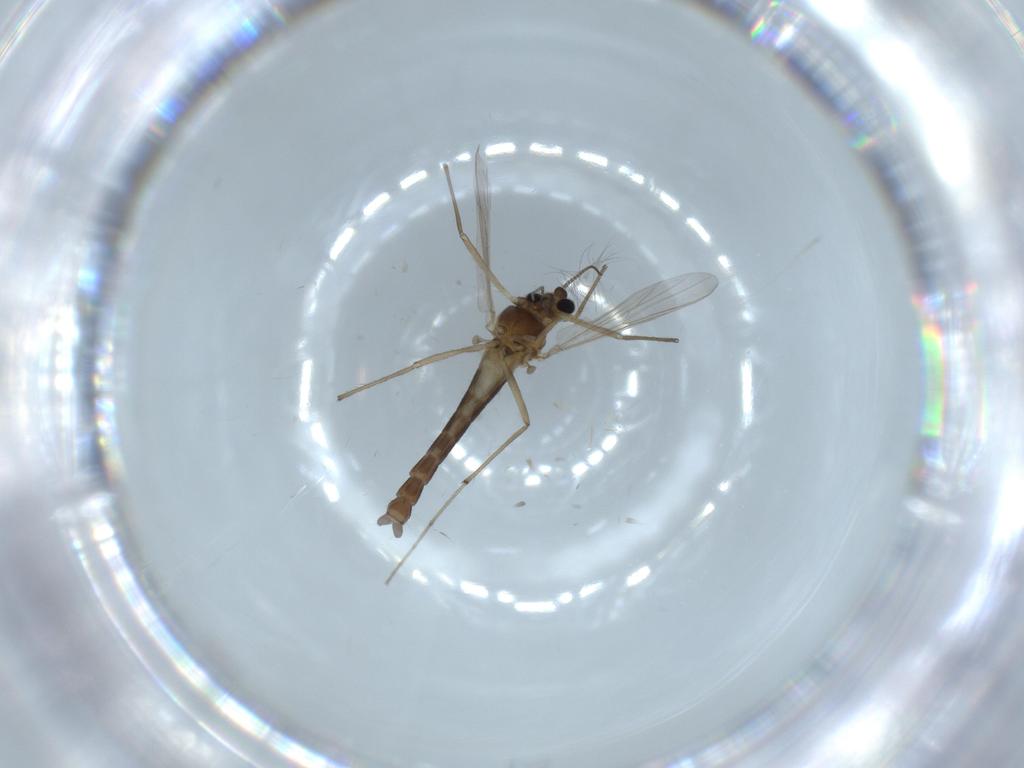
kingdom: Animalia
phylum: Arthropoda
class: Insecta
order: Diptera
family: Chironomidae
